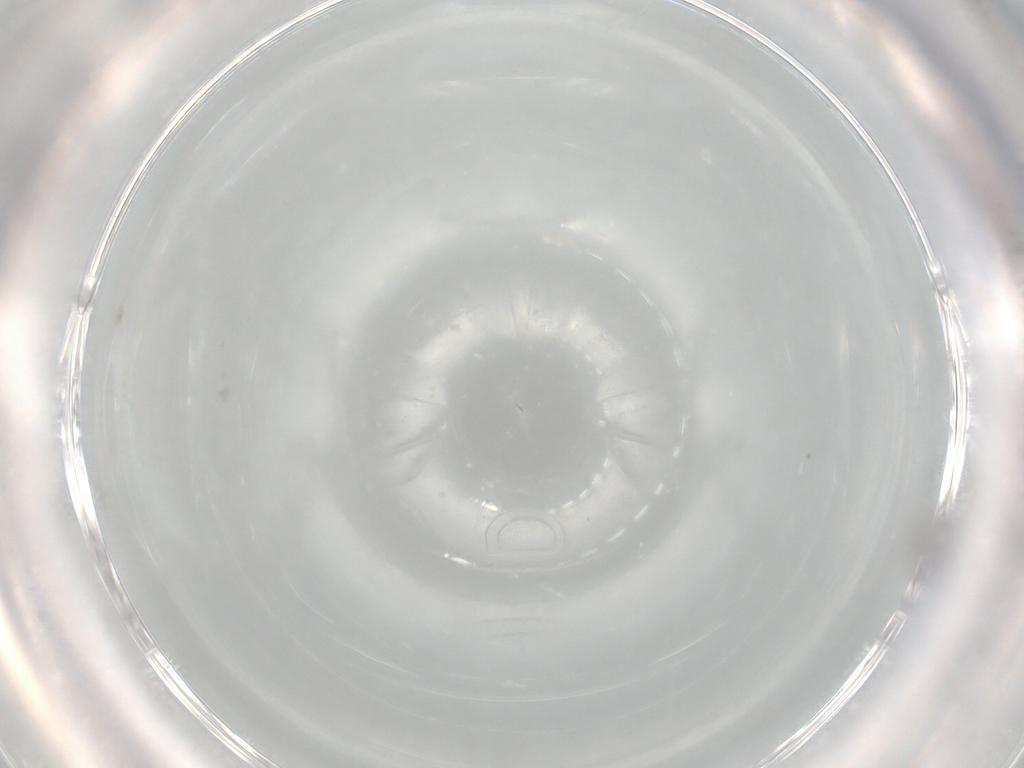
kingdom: Animalia
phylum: Arthropoda
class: Collembola
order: Entomobryomorpha
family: Entomobryidae
